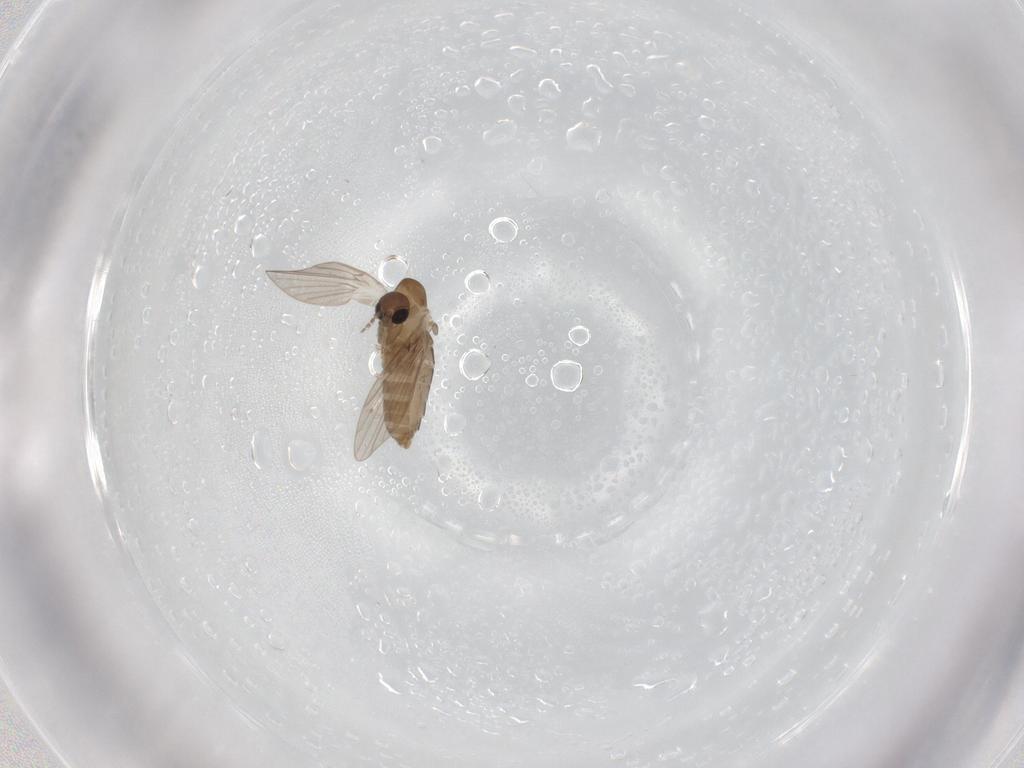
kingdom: Animalia
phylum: Arthropoda
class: Insecta
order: Diptera
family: Phoridae
